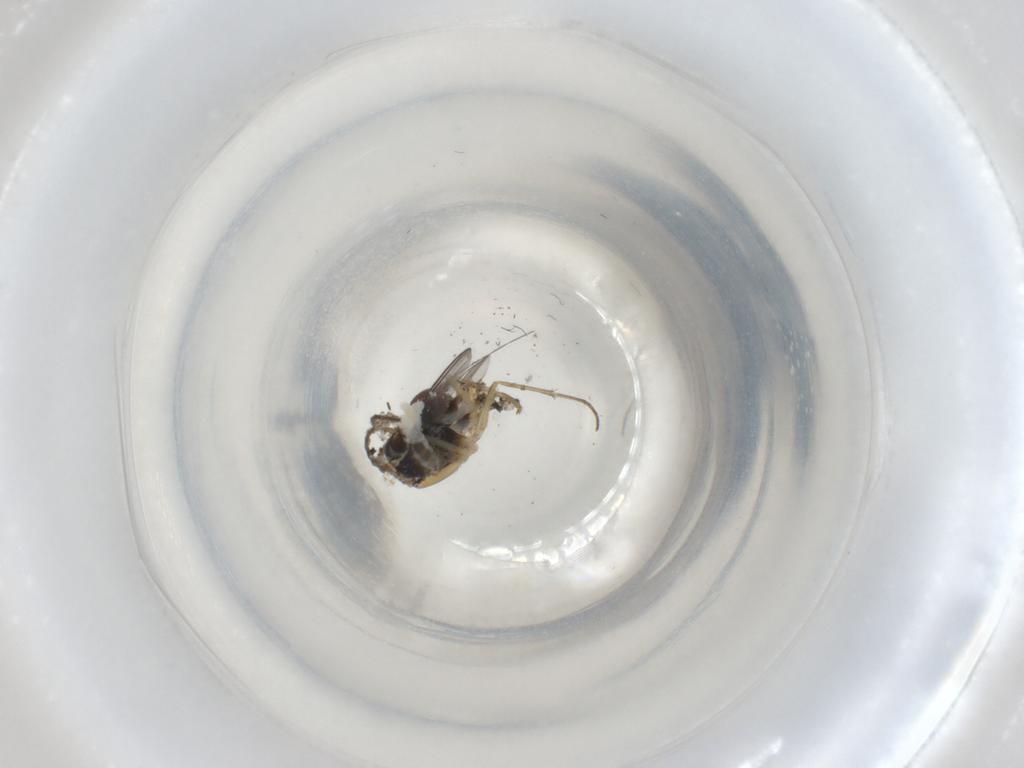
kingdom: Animalia
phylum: Arthropoda
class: Insecta
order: Diptera
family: Dolichopodidae
